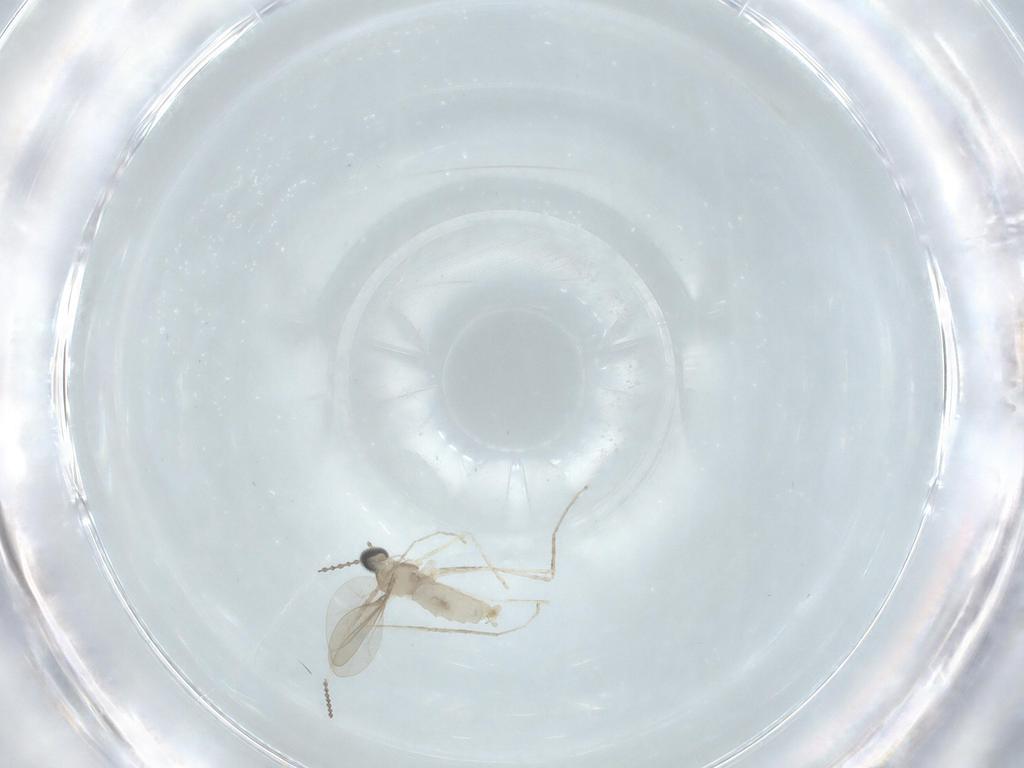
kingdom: Animalia
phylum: Arthropoda
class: Insecta
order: Diptera
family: Cecidomyiidae
